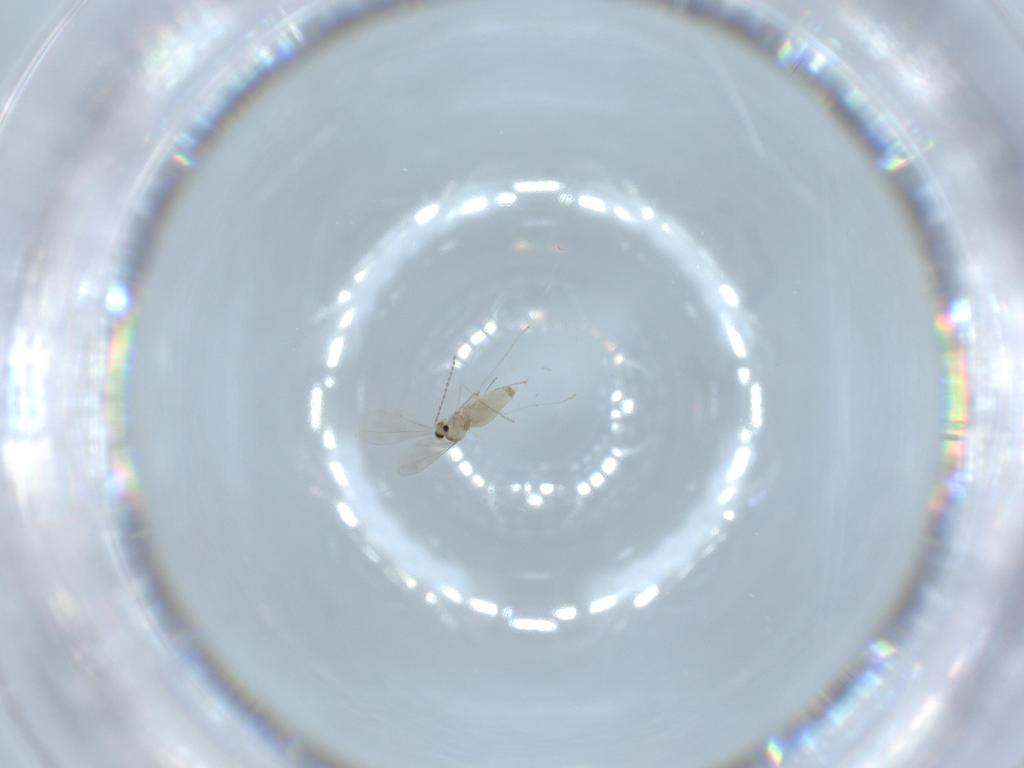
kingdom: Animalia
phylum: Arthropoda
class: Insecta
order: Diptera
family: Cecidomyiidae
